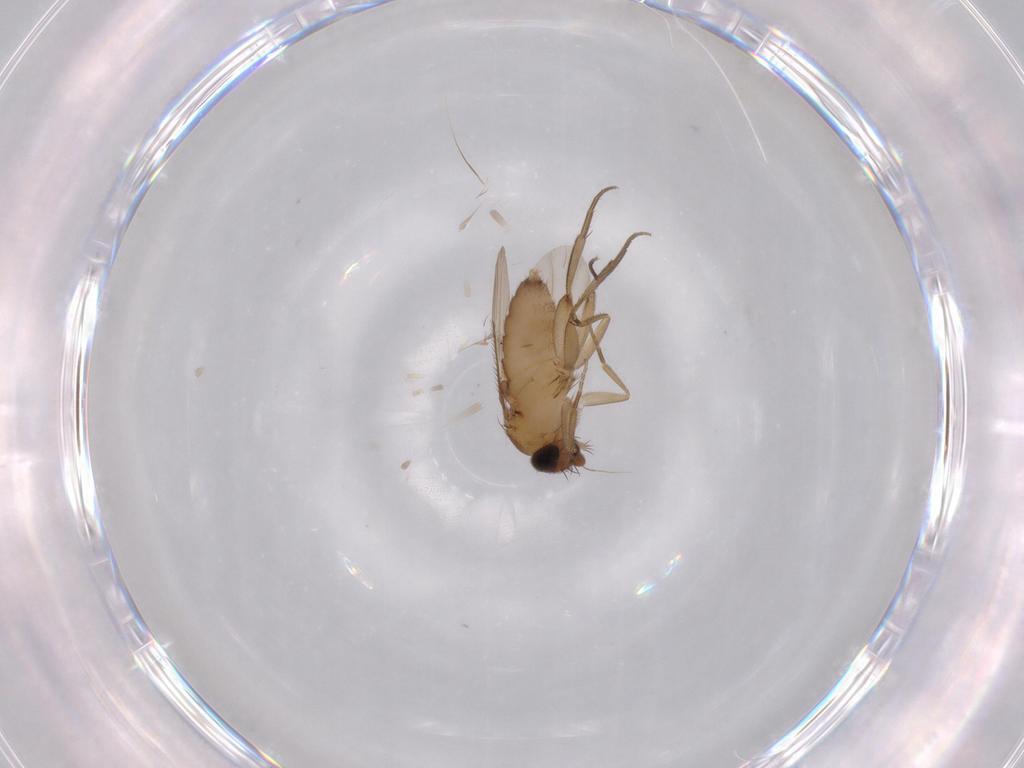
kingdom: Animalia
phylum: Arthropoda
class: Insecta
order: Diptera
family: Phoridae
